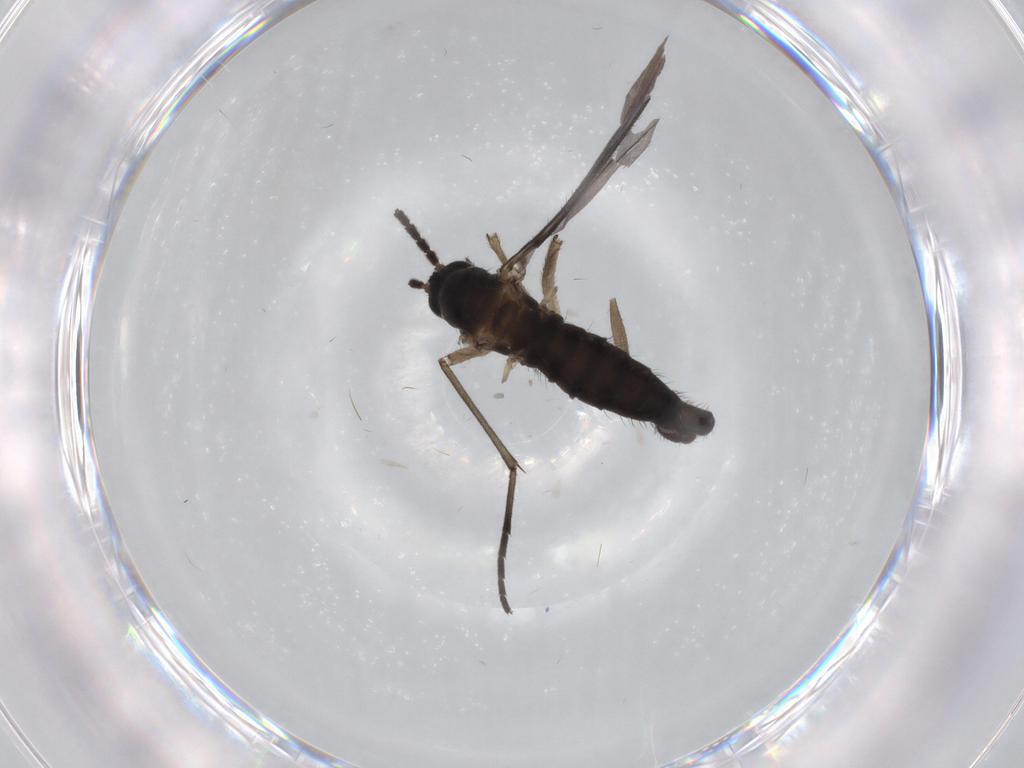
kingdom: Animalia
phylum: Arthropoda
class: Insecta
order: Diptera
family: Sciaridae
